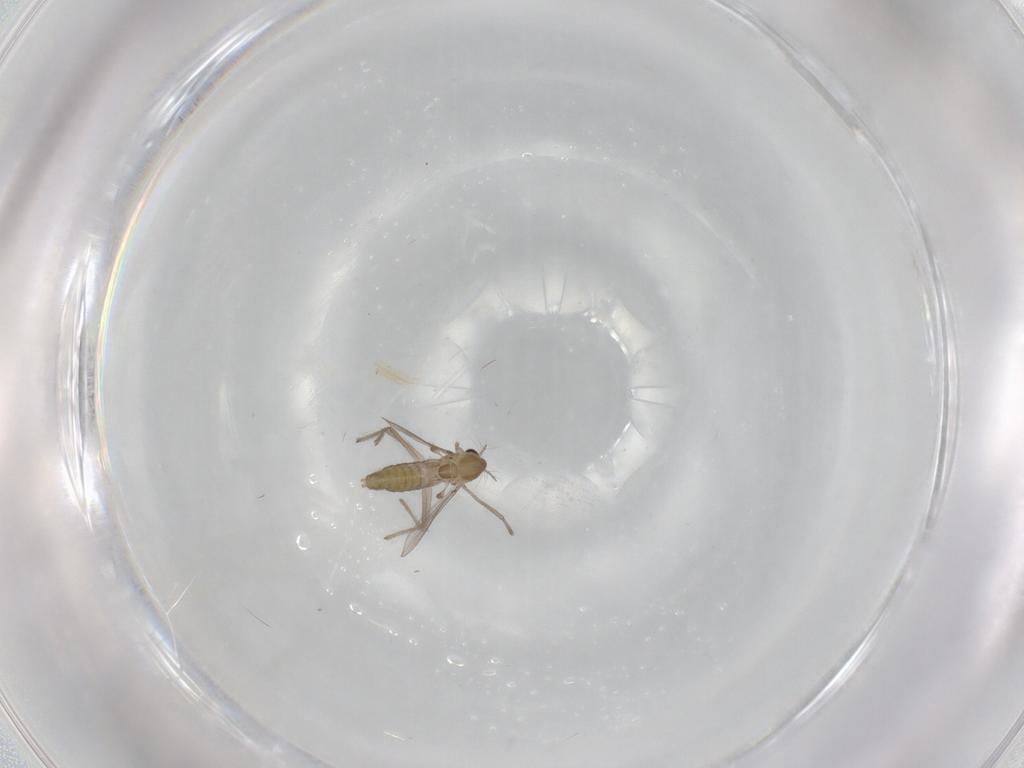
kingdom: Animalia
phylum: Arthropoda
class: Insecta
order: Diptera
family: Chironomidae
